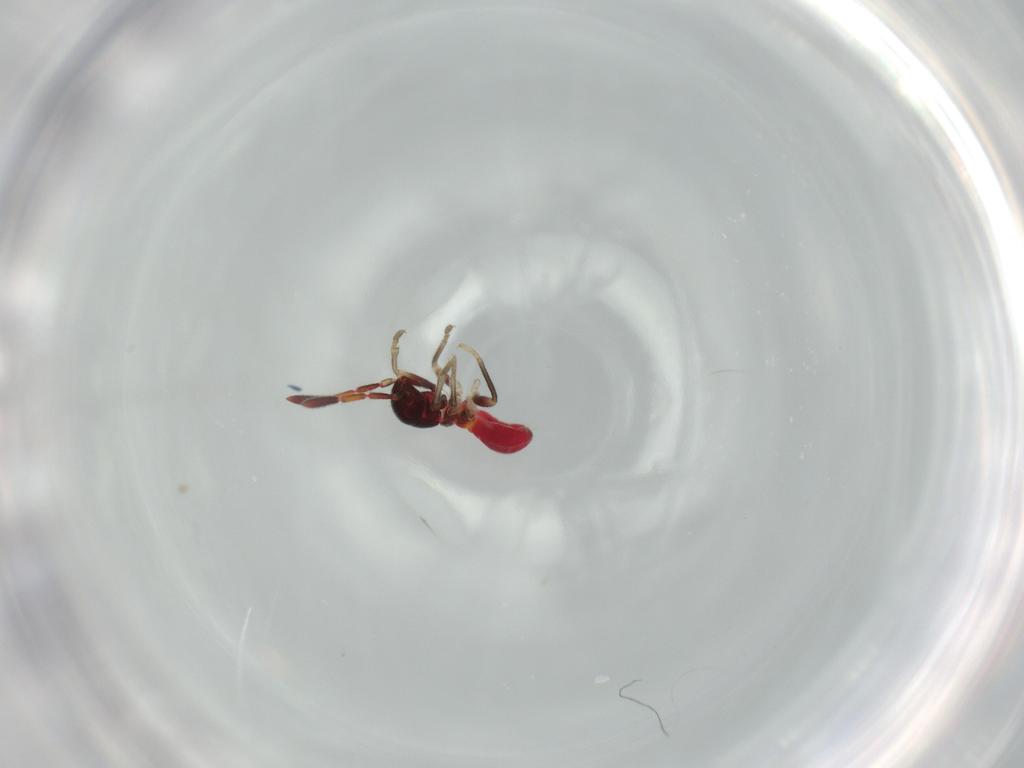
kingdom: Animalia
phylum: Arthropoda
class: Insecta
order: Hemiptera
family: Rhyparochromidae
